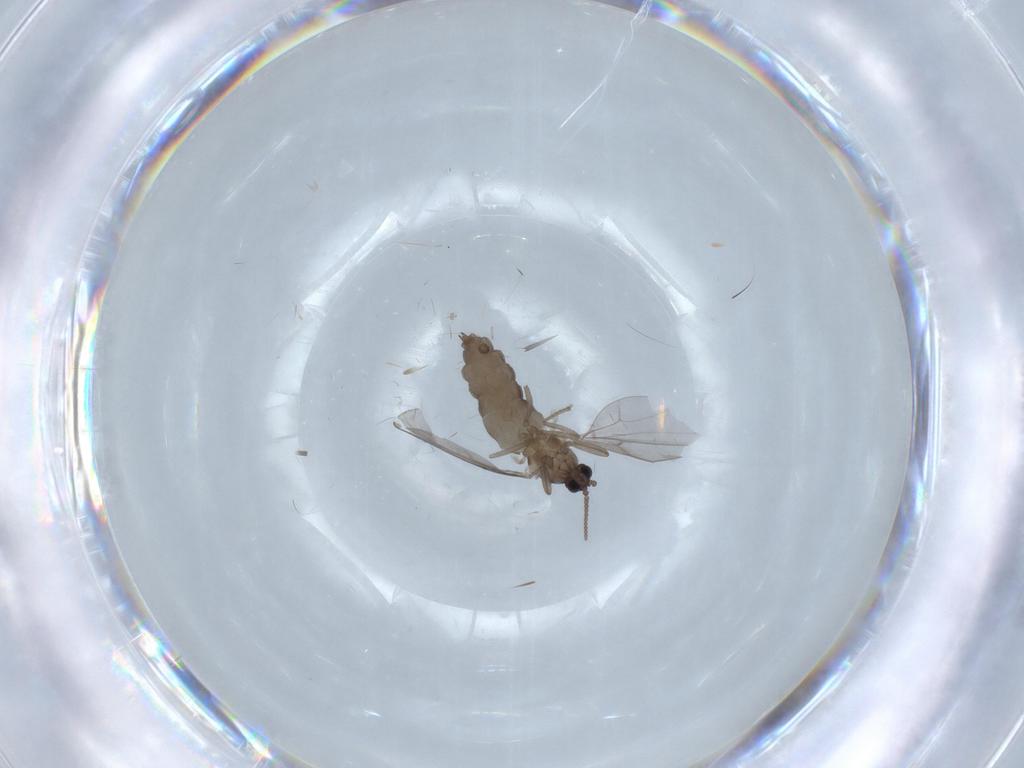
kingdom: Animalia
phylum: Arthropoda
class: Insecta
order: Diptera
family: Cecidomyiidae
